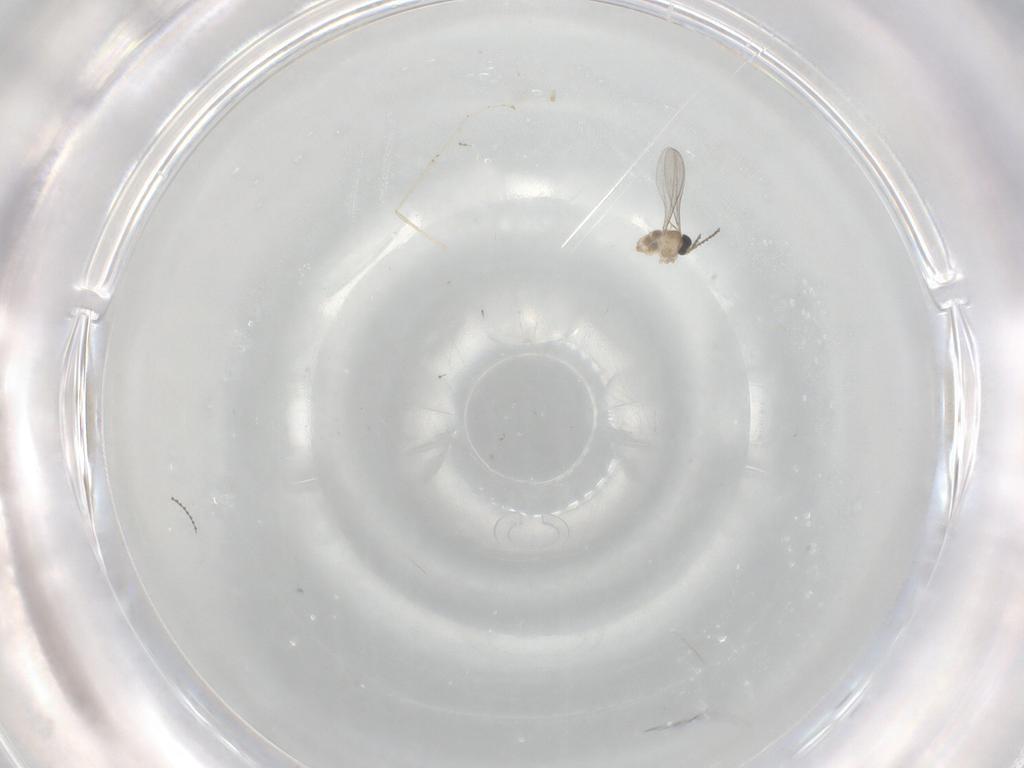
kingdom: Animalia
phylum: Arthropoda
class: Insecta
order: Diptera
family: Cecidomyiidae
